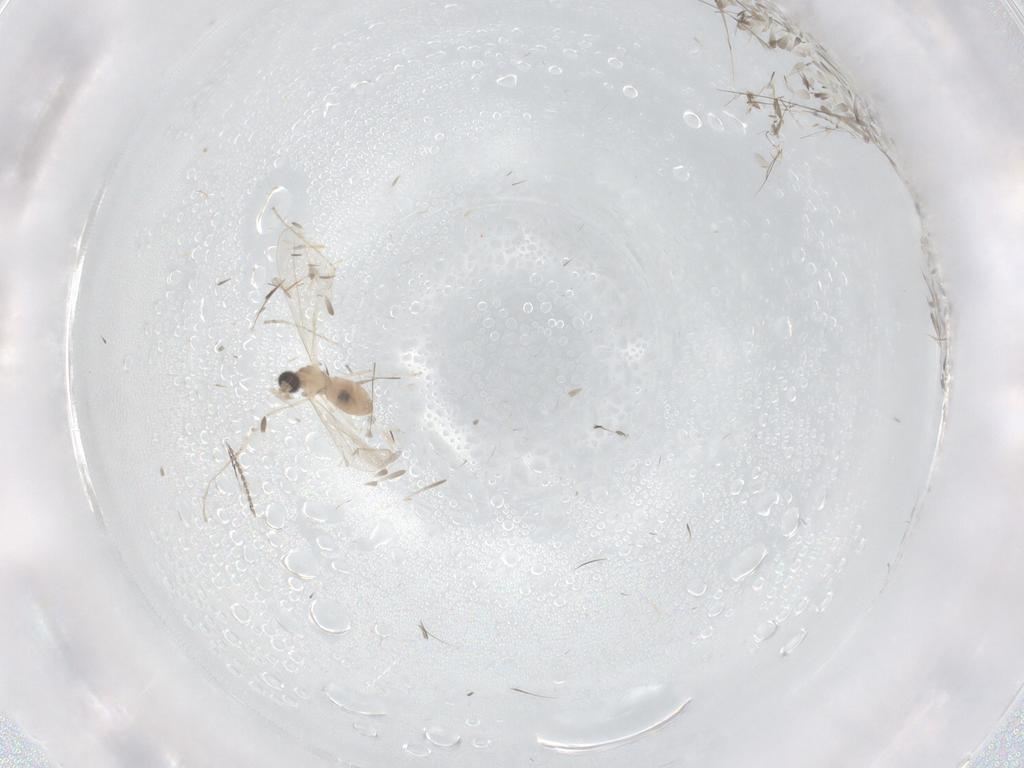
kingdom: Animalia
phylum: Arthropoda
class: Insecta
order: Diptera
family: Cecidomyiidae
